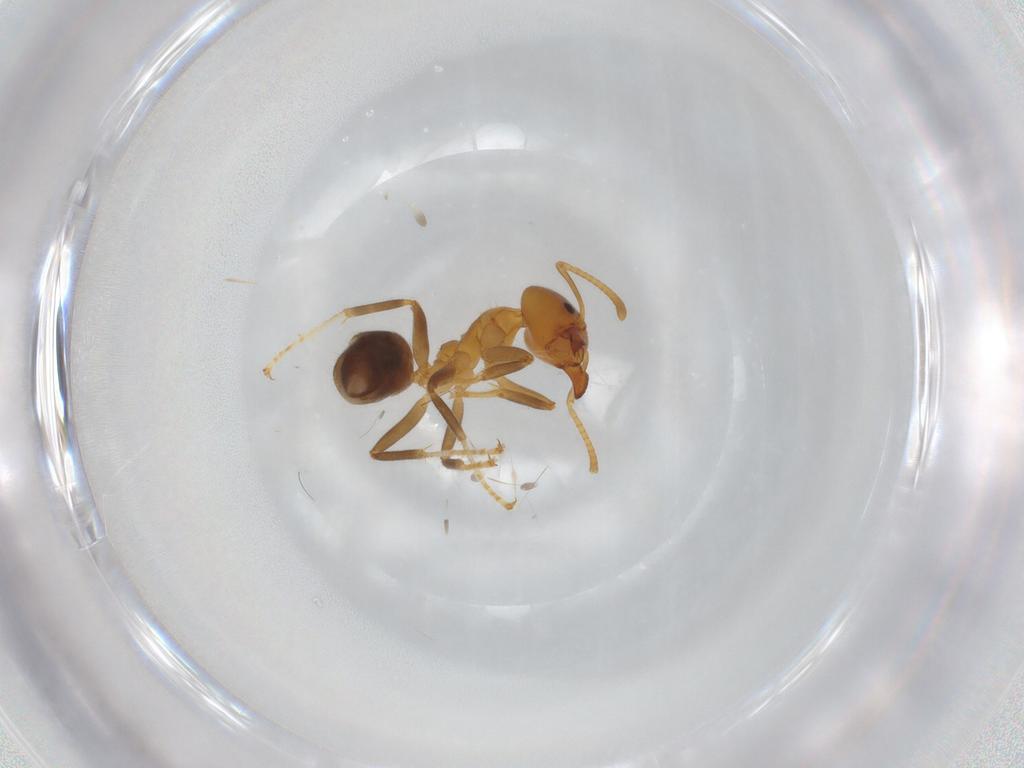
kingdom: Animalia
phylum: Arthropoda
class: Insecta
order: Hymenoptera
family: Formicidae
